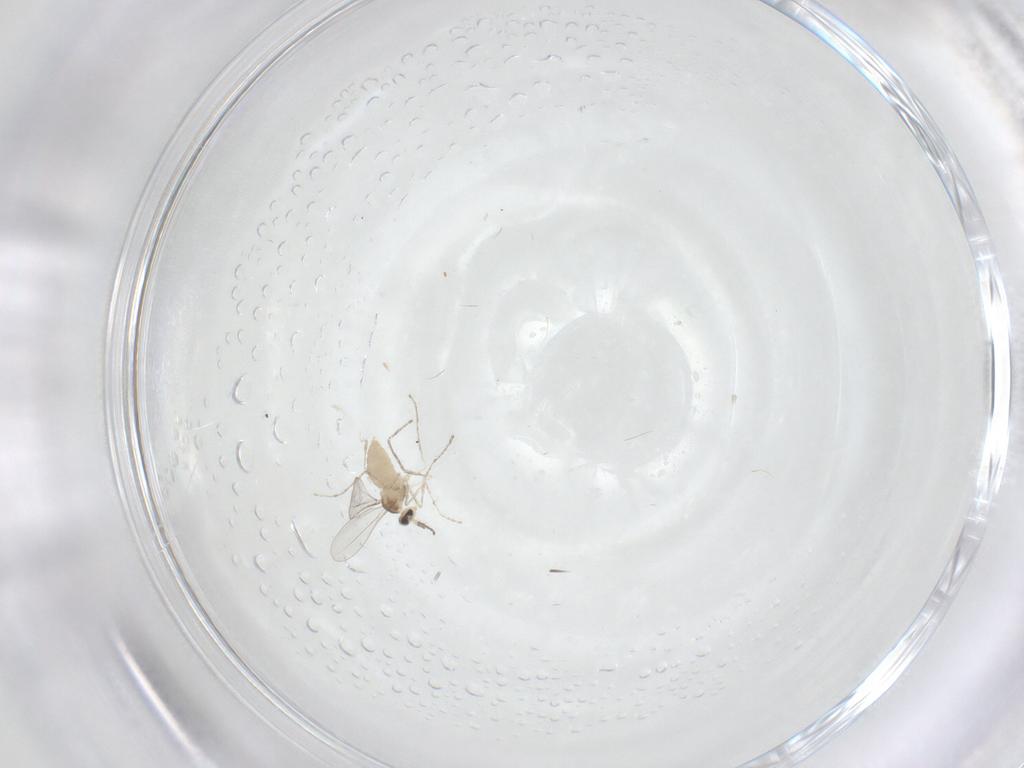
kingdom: Animalia
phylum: Arthropoda
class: Insecta
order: Diptera
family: Cecidomyiidae
